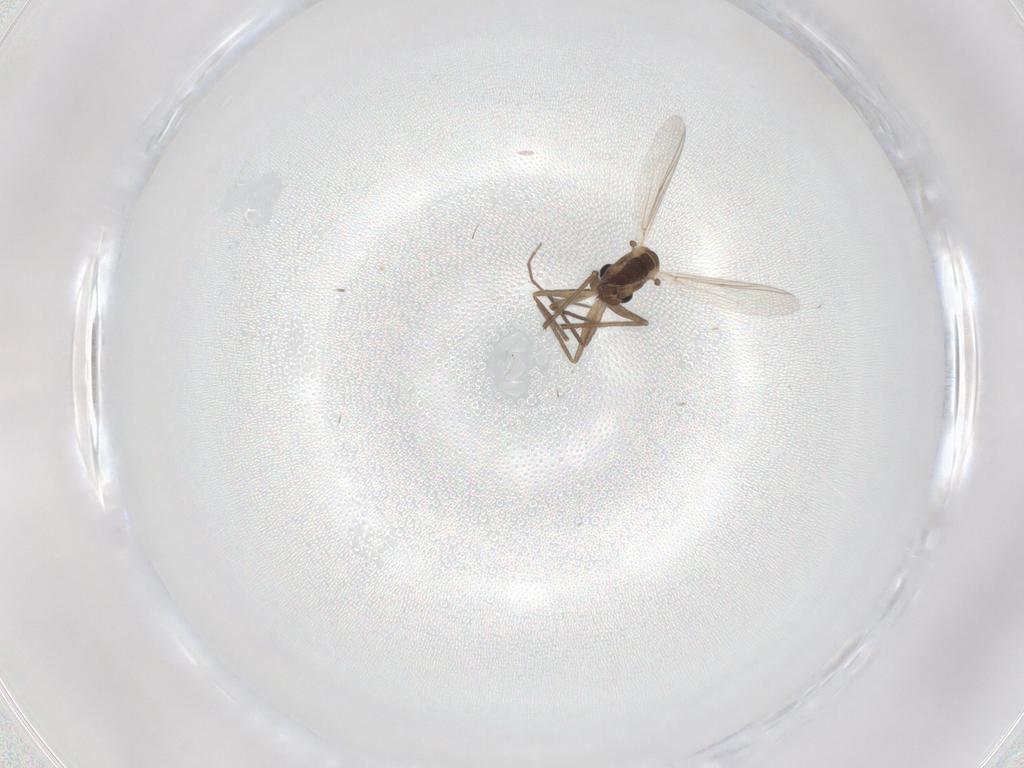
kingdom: Animalia
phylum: Arthropoda
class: Insecta
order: Diptera
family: Chironomidae
